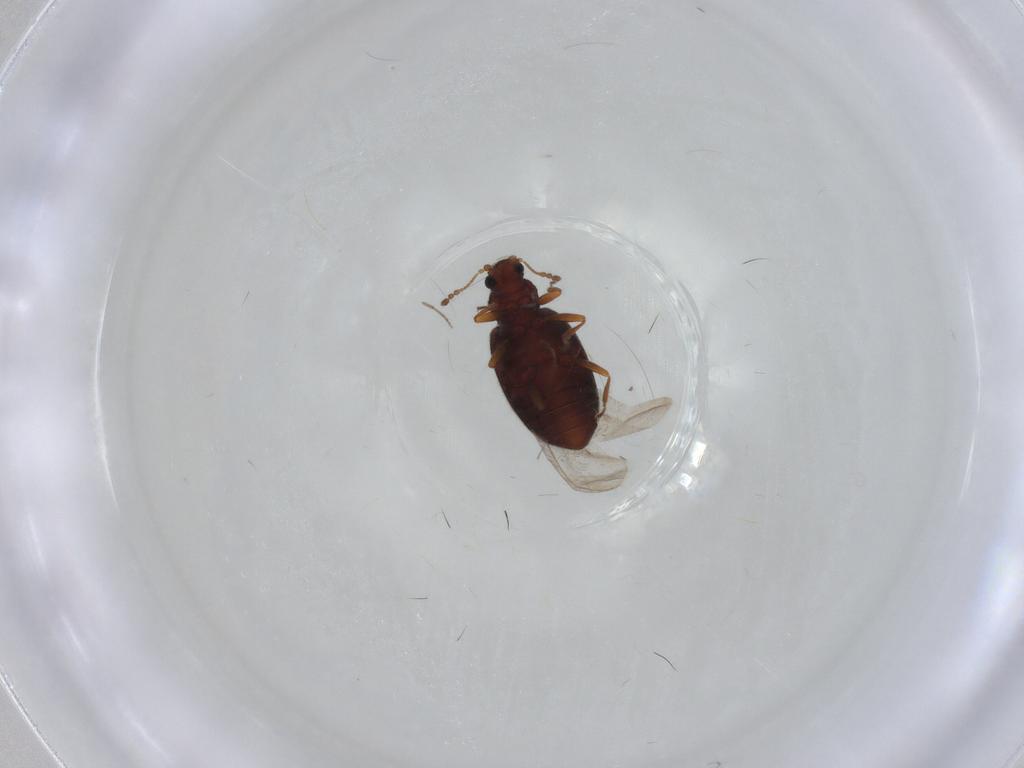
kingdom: Animalia
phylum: Arthropoda
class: Insecta
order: Coleoptera
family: Latridiidae
